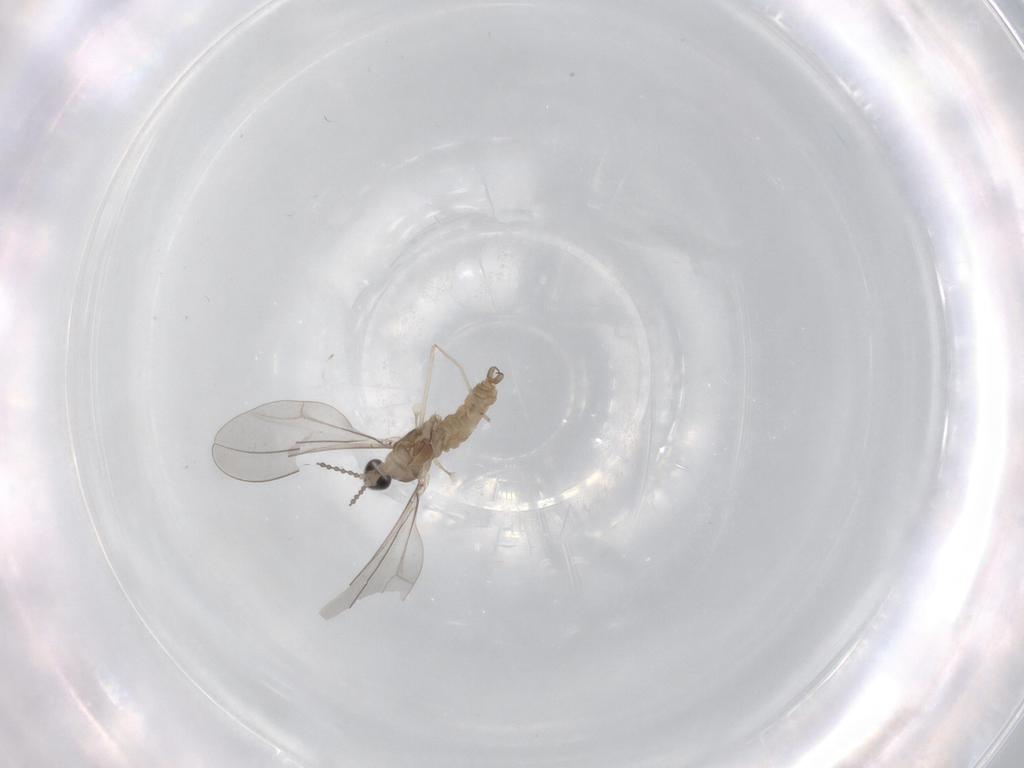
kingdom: Animalia
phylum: Arthropoda
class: Insecta
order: Diptera
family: Cecidomyiidae
